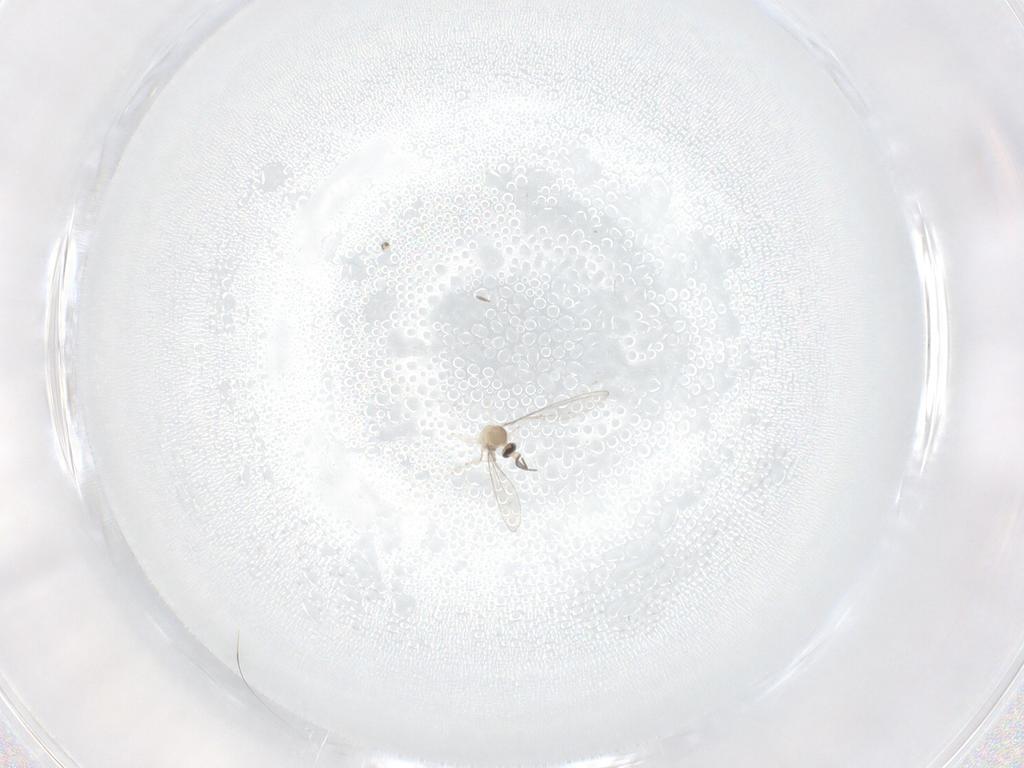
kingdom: Animalia
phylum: Arthropoda
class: Insecta
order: Diptera
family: Cecidomyiidae
